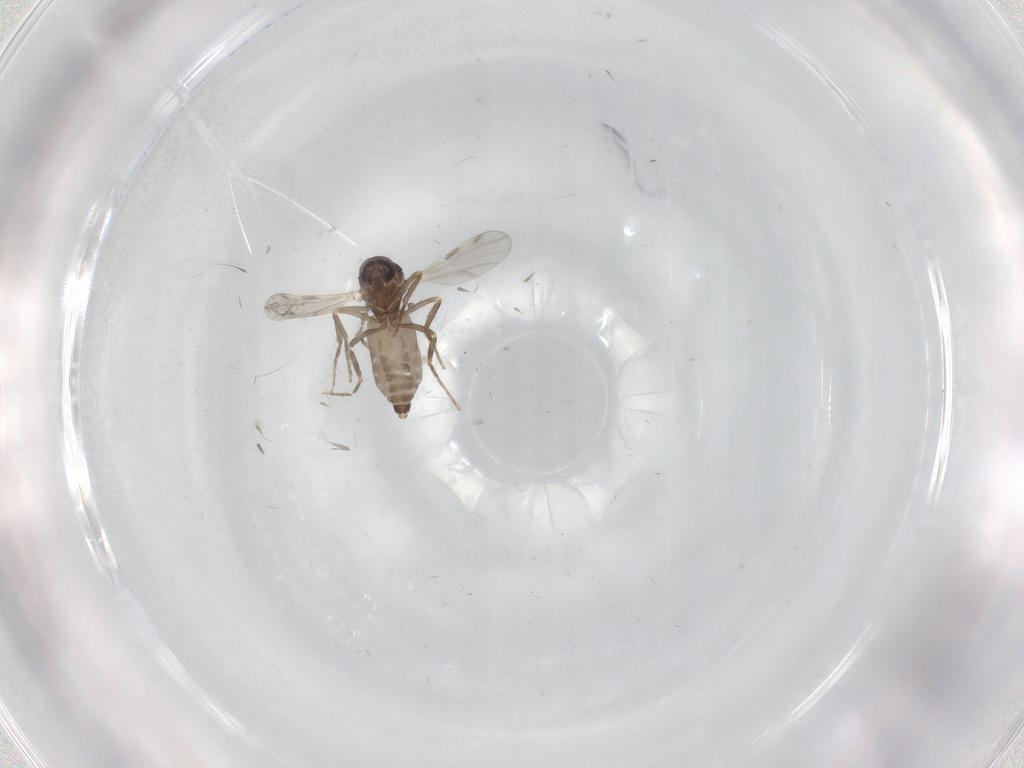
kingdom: Animalia
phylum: Arthropoda
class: Insecta
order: Diptera
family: Ceratopogonidae
